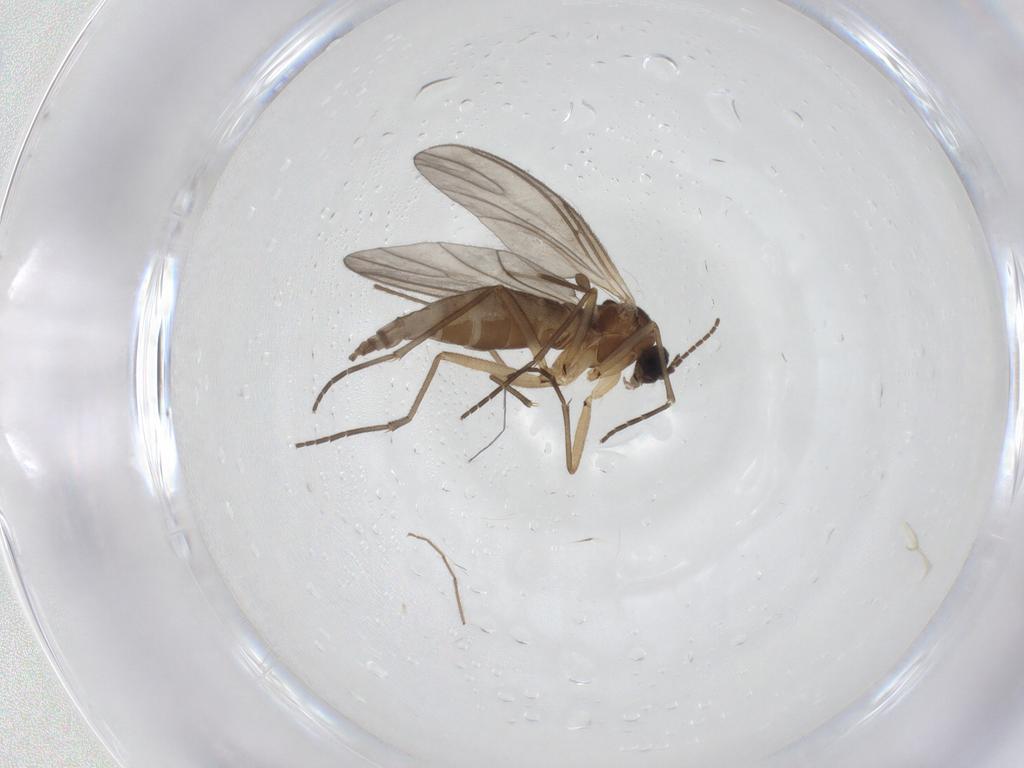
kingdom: Animalia
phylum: Arthropoda
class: Insecta
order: Diptera
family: Sciaridae
